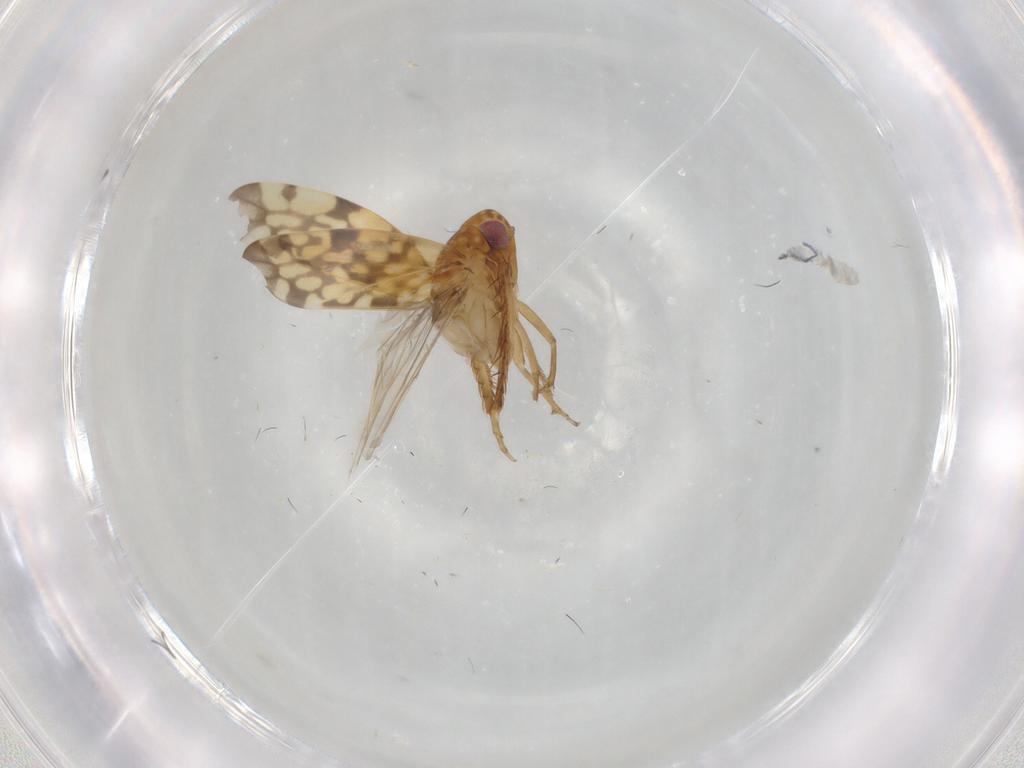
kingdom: Animalia
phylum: Arthropoda
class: Insecta
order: Hemiptera
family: Cicadellidae
